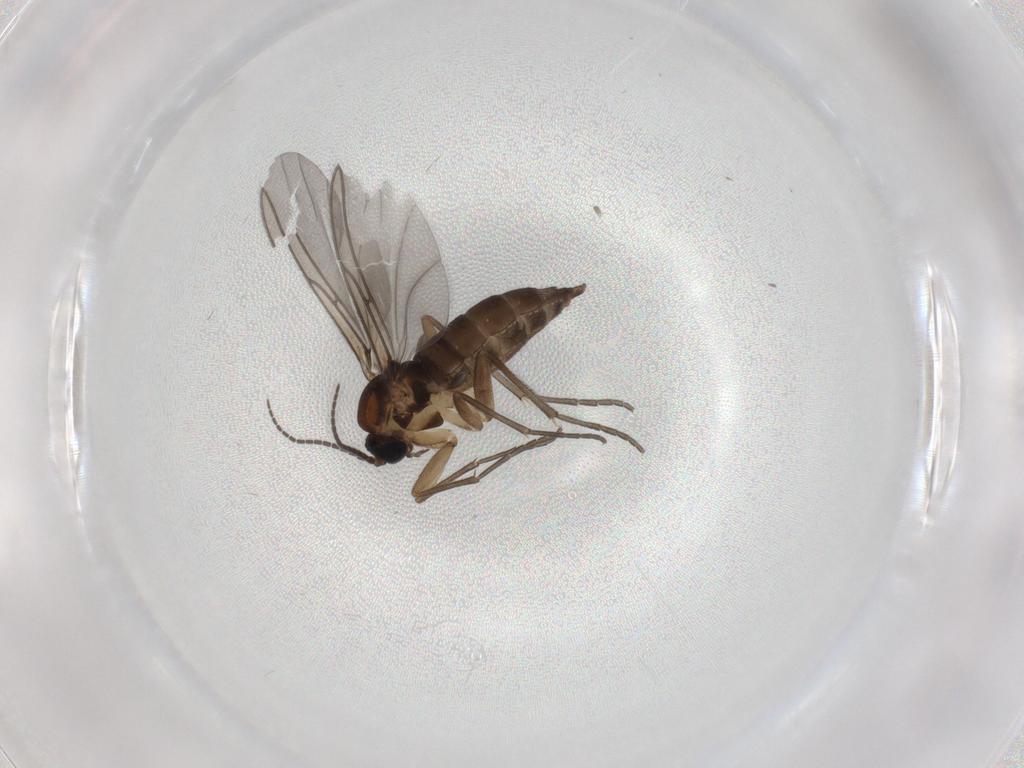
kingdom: Animalia
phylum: Arthropoda
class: Insecta
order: Diptera
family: Sciaridae
